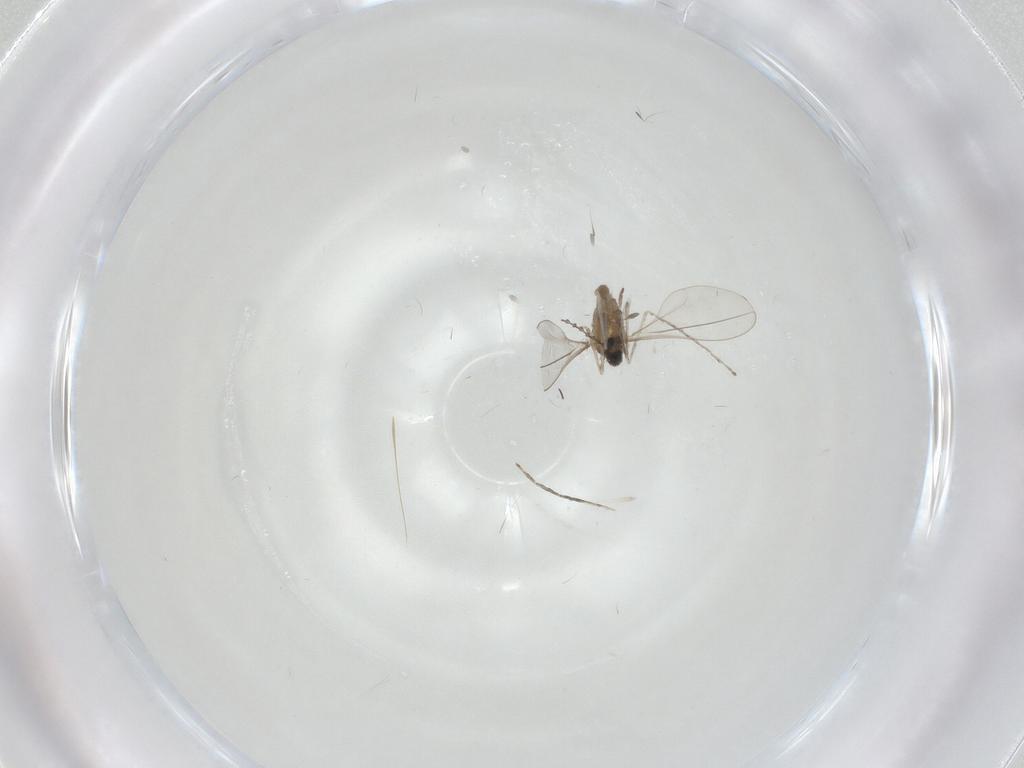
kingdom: Animalia
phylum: Arthropoda
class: Insecta
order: Diptera
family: Cecidomyiidae
